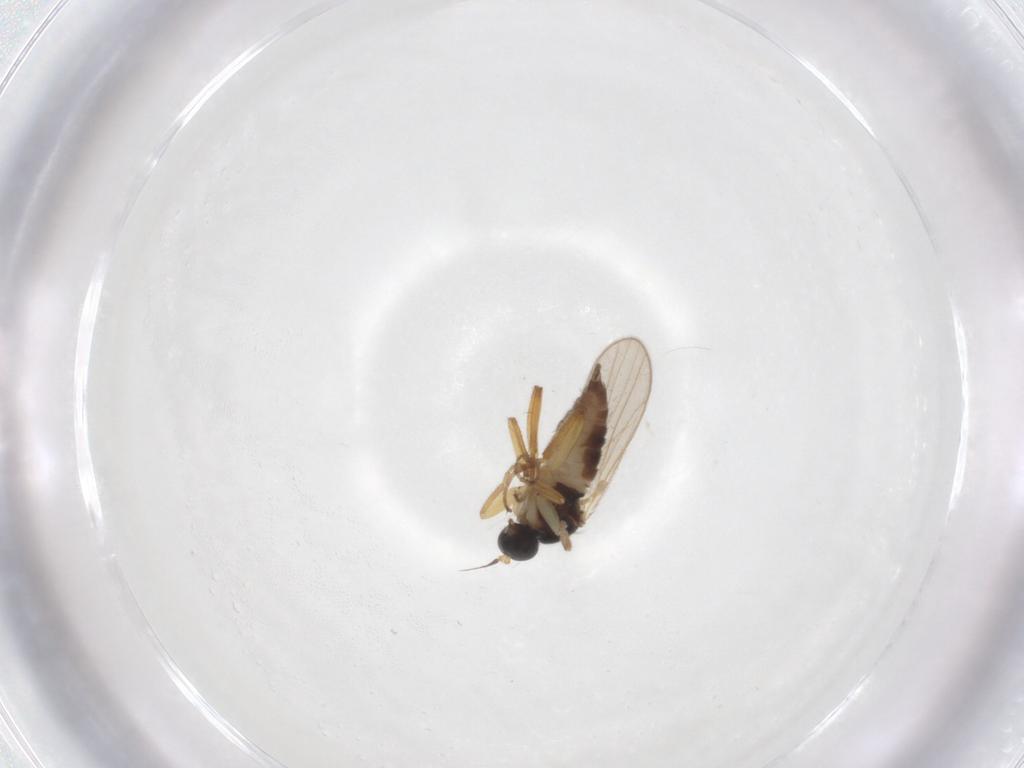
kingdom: Animalia
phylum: Arthropoda
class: Insecta
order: Diptera
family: Hybotidae
